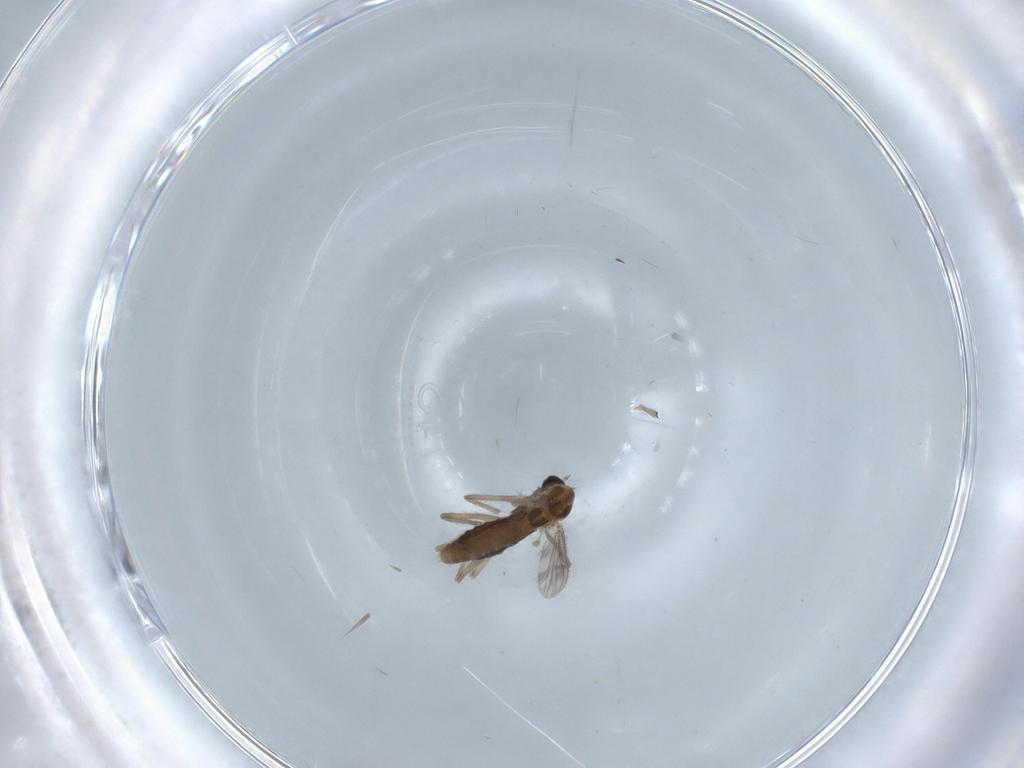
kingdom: Animalia
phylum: Arthropoda
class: Insecta
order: Diptera
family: Chironomidae
